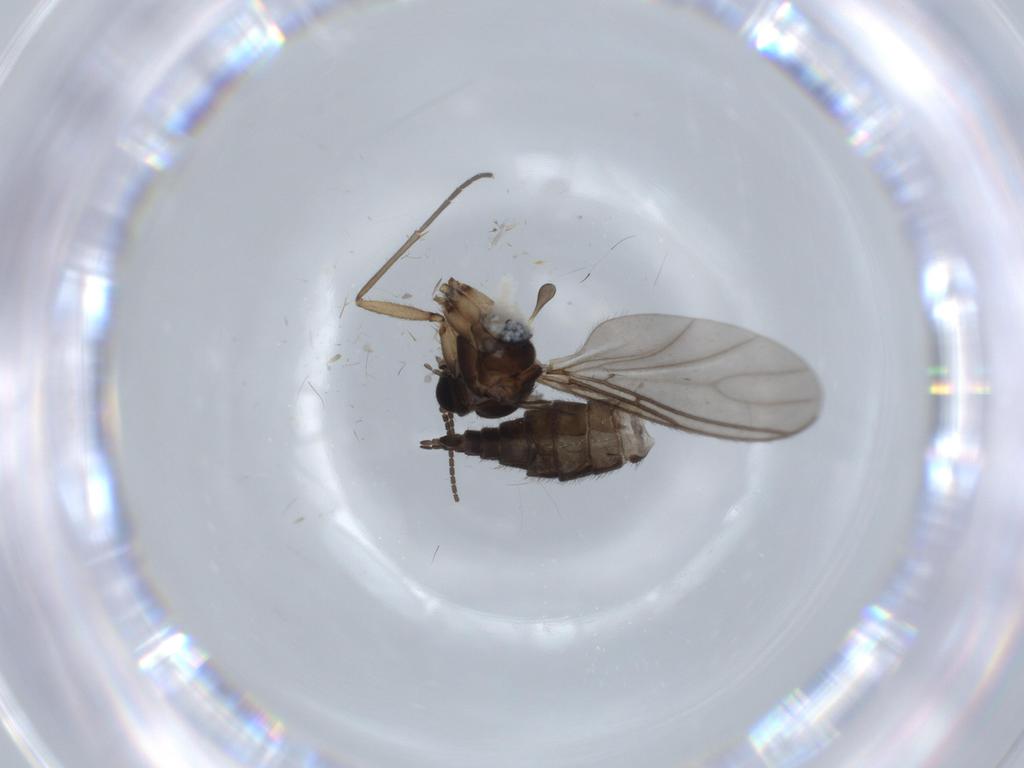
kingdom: Animalia
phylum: Arthropoda
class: Insecta
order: Diptera
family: Sciaridae
